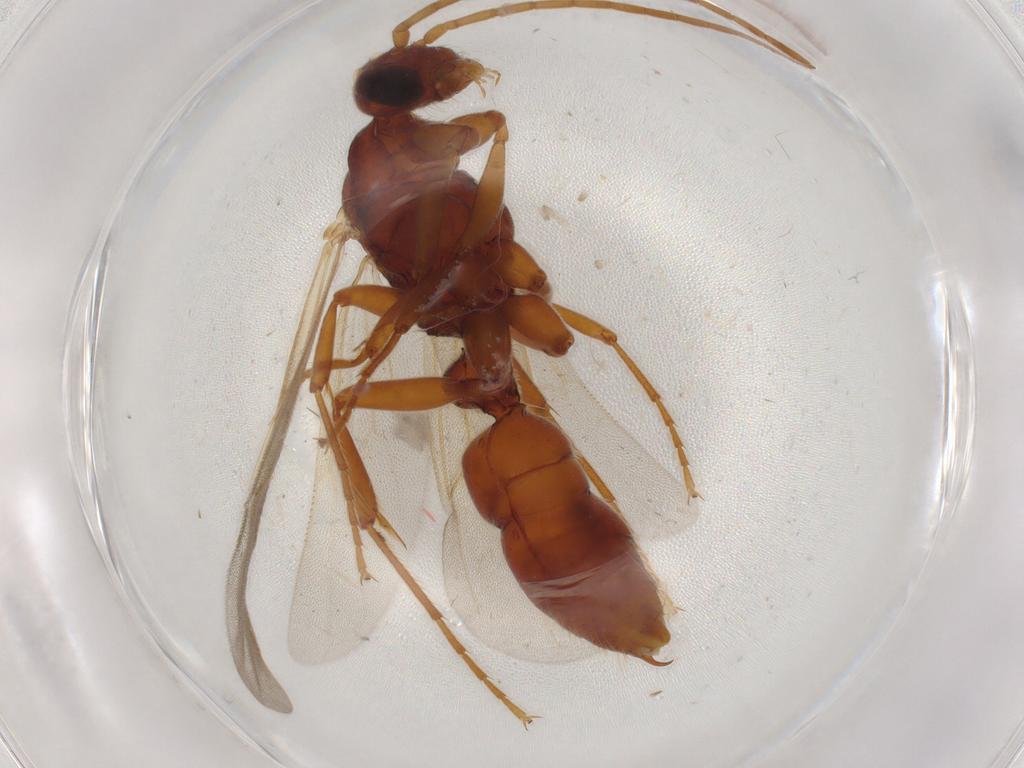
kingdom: Animalia
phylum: Arthropoda
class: Insecta
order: Hymenoptera
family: Formicidae
